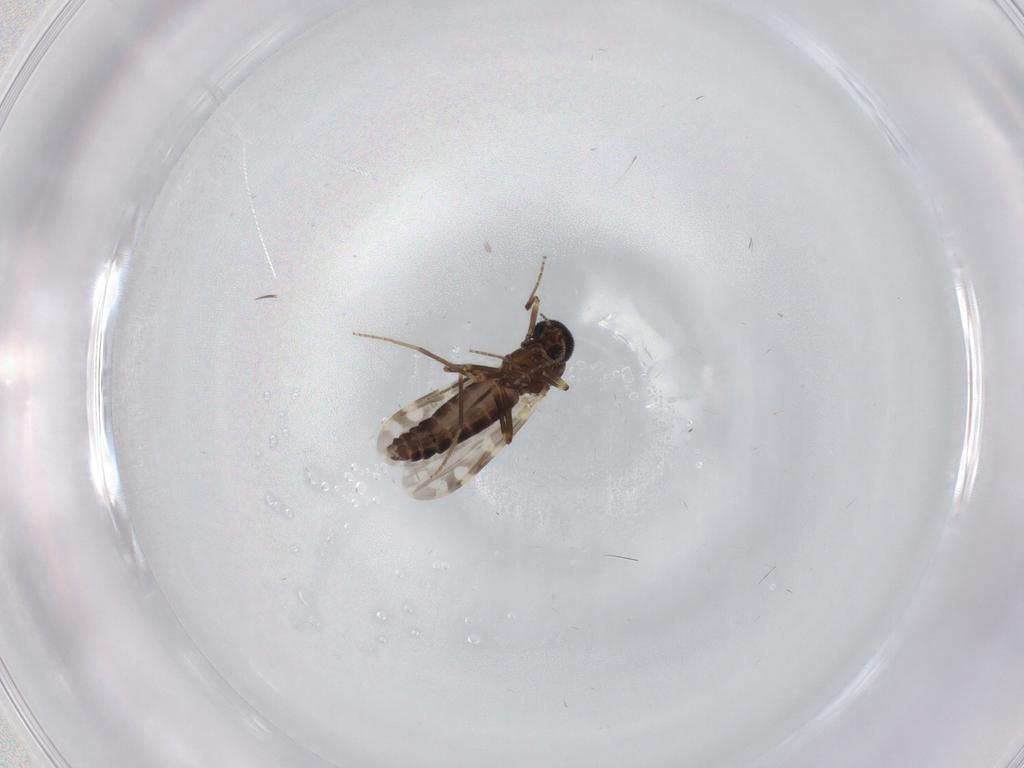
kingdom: Animalia
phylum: Arthropoda
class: Insecta
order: Diptera
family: Ceratopogonidae
